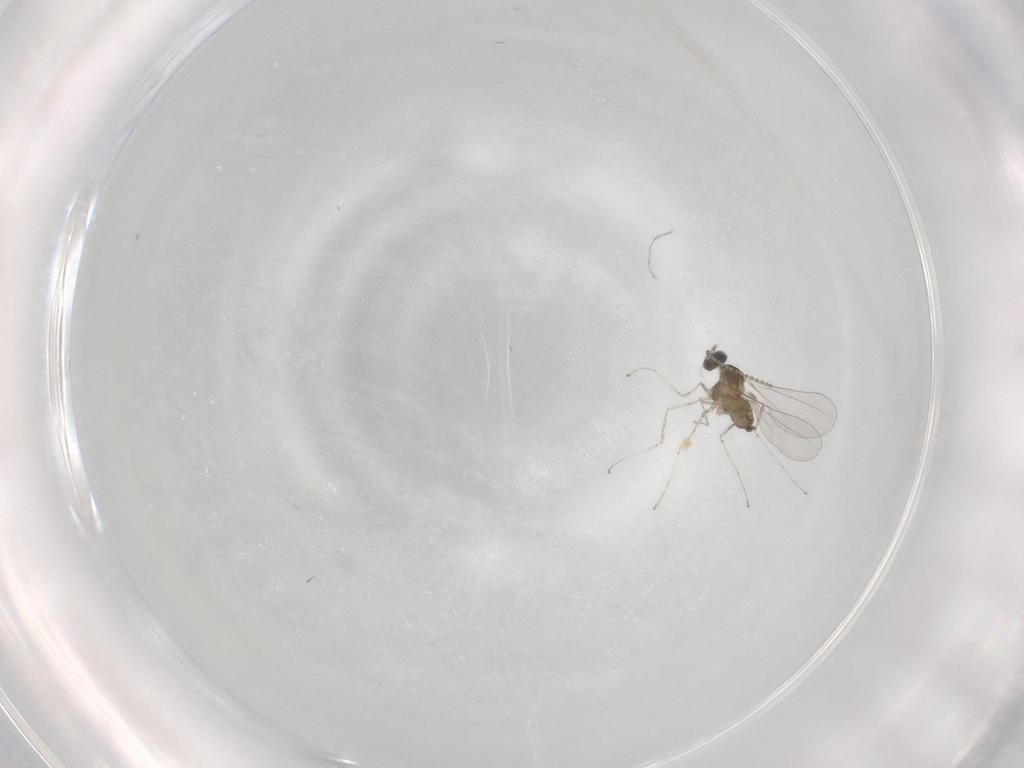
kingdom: Animalia
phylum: Arthropoda
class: Insecta
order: Diptera
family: Cecidomyiidae
